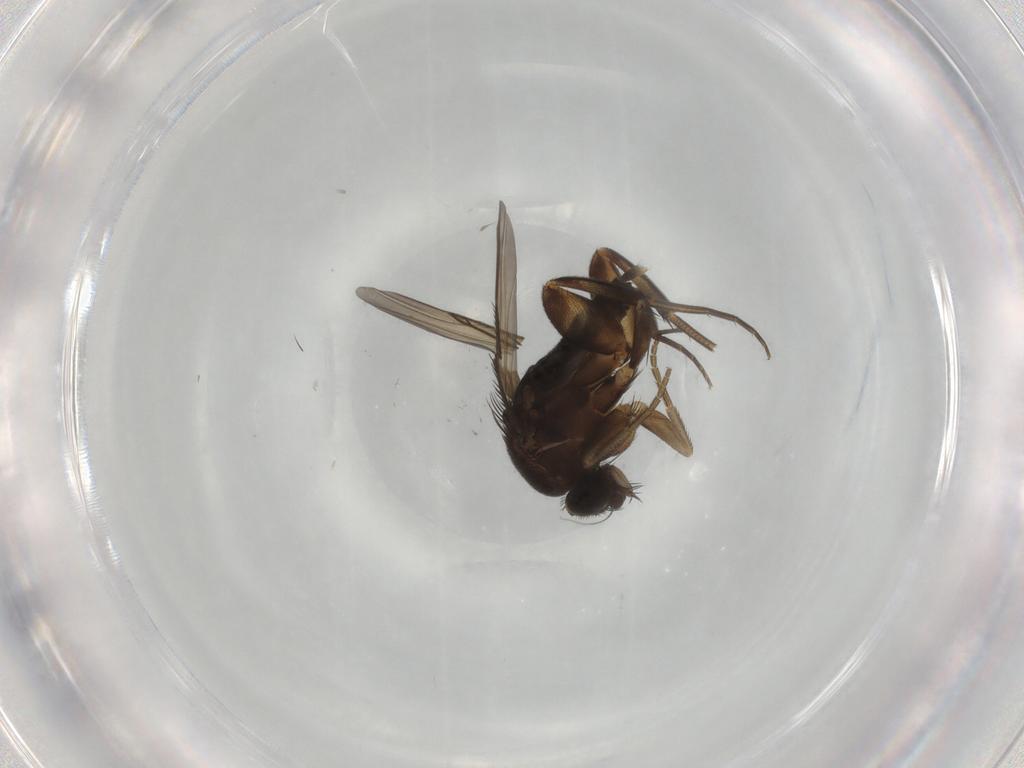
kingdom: Animalia
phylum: Arthropoda
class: Insecta
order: Diptera
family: Phoridae
